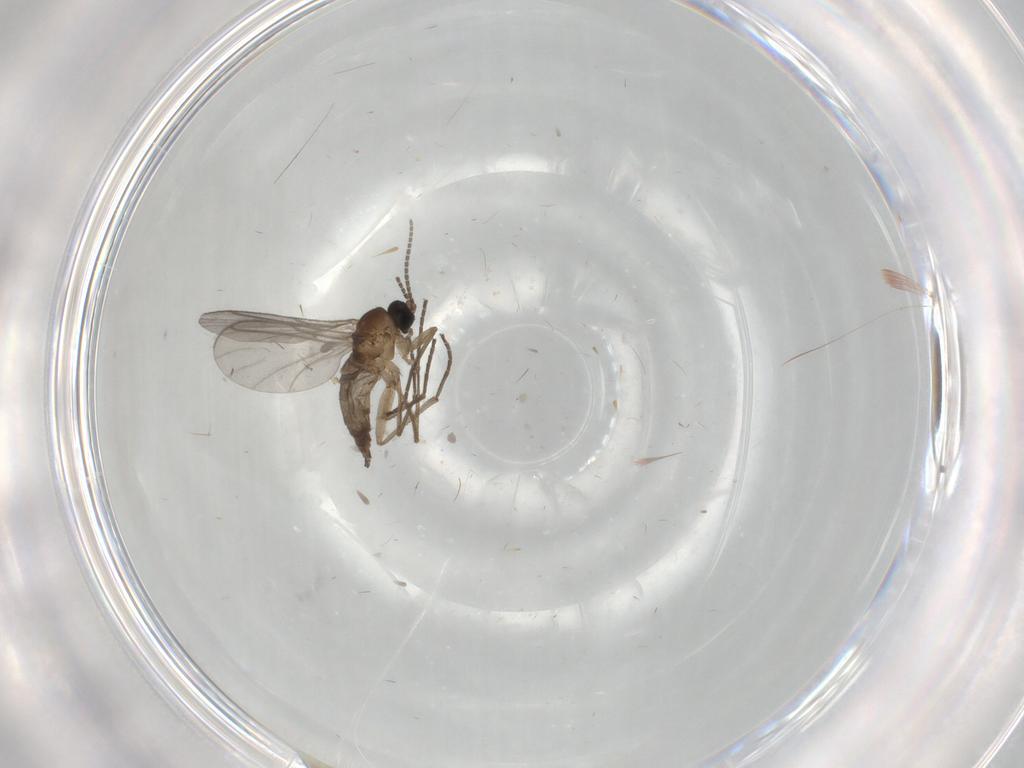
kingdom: Animalia
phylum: Arthropoda
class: Insecta
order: Diptera
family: Sciaridae
